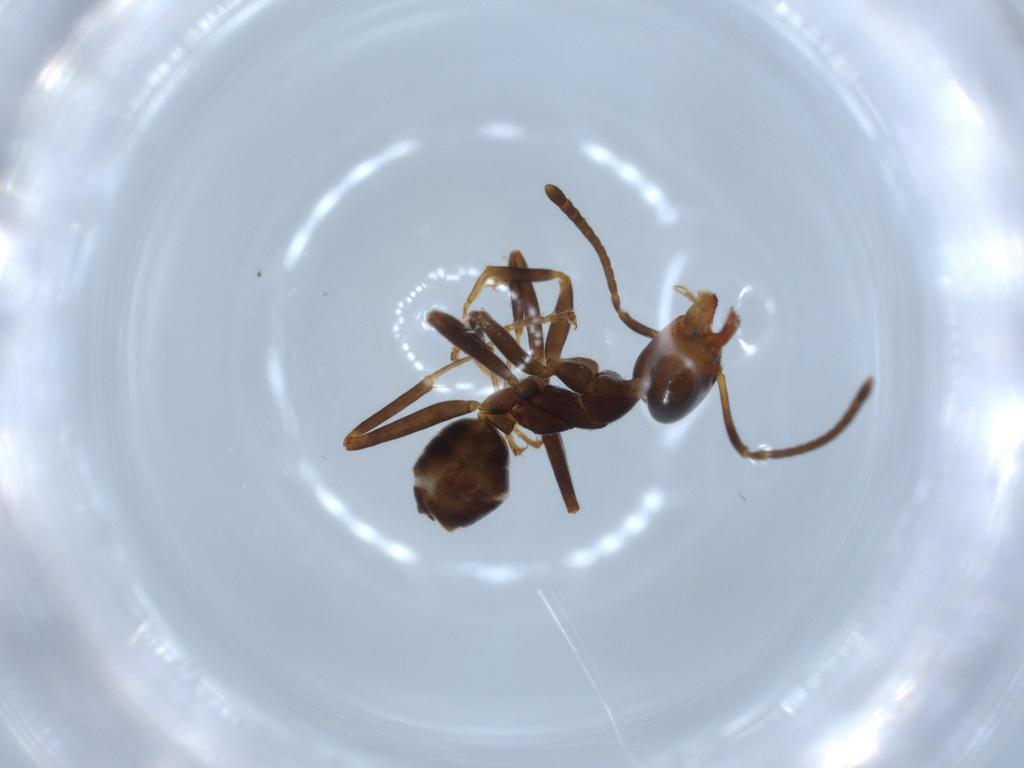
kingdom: Animalia
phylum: Arthropoda
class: Insecta
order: Hymenoptera
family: Formicidae
